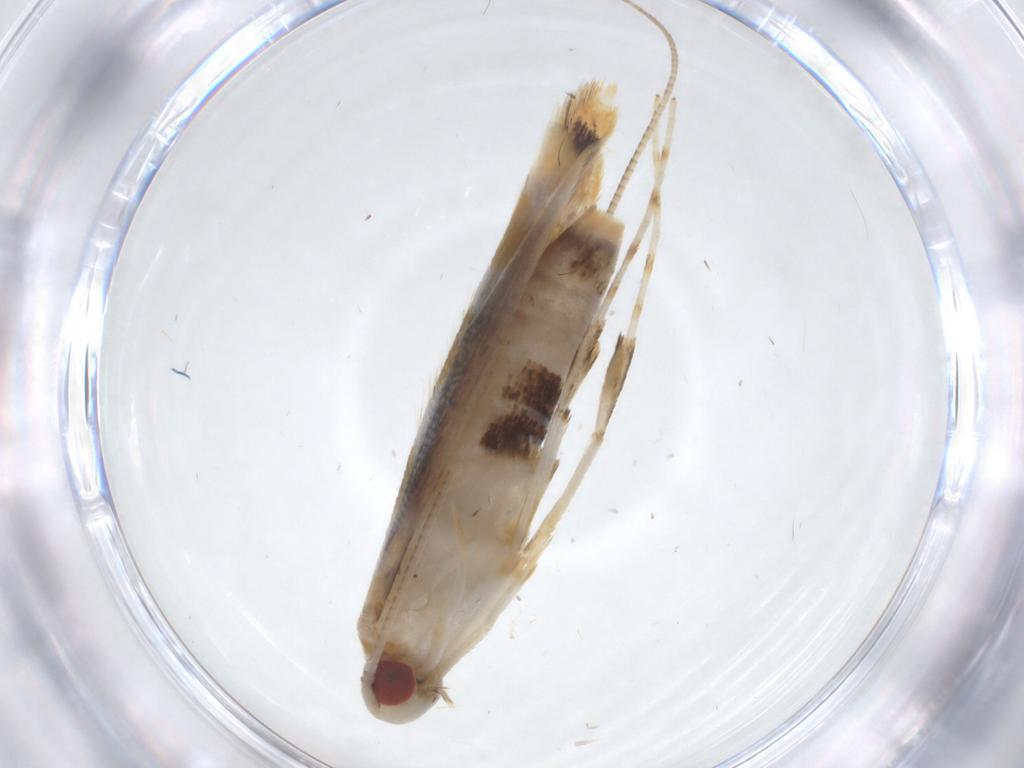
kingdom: Animalia
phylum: Arthropoda
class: Insecta
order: Lepidoptera
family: Gracillariidae
